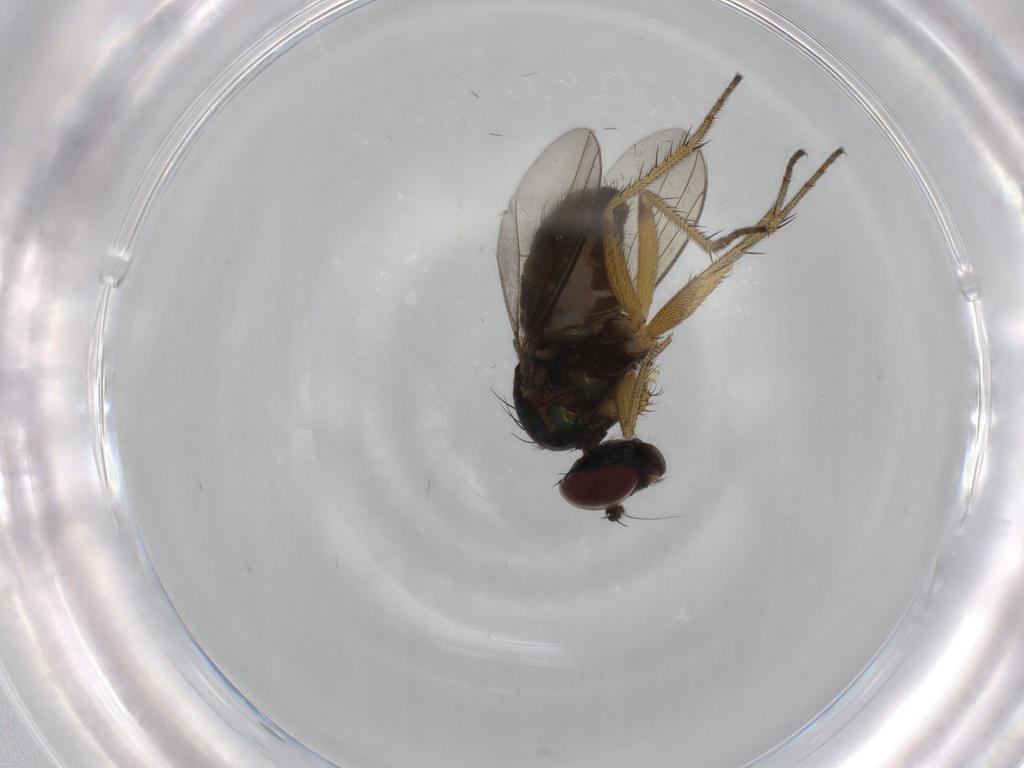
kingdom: Animalia
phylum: Arthropoda
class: Insecta
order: Diptera
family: Dolichopodidae
